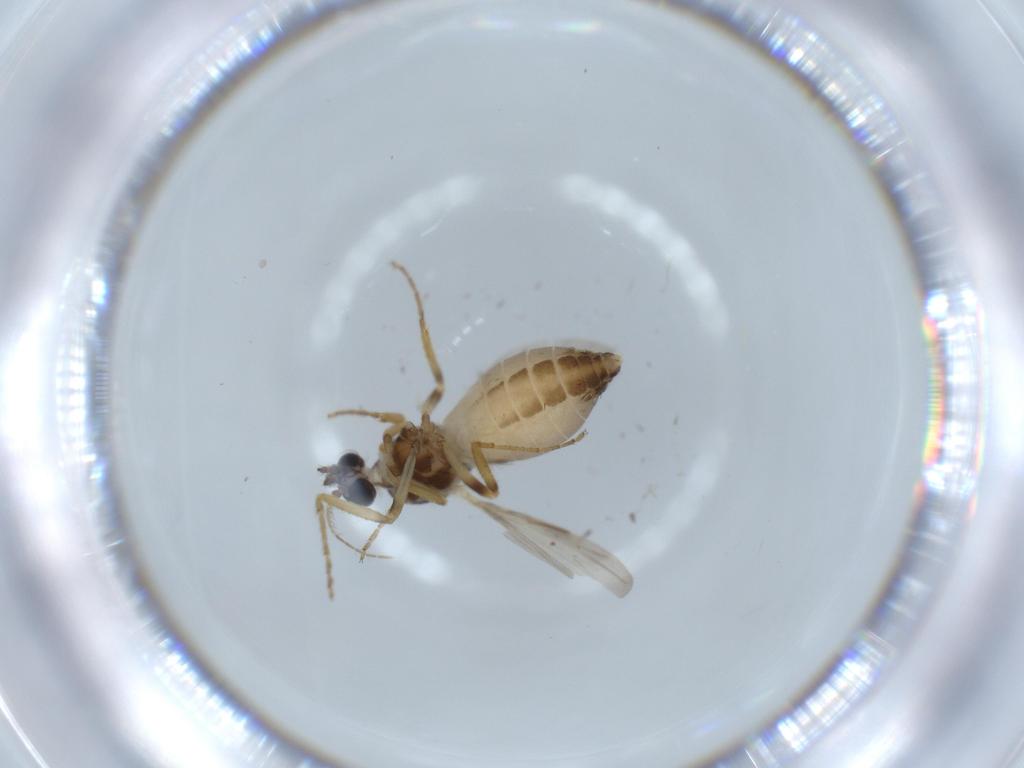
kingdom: Animalia
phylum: Arthropoda
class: Insecta
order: Diptera
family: Ceratopogonidae
